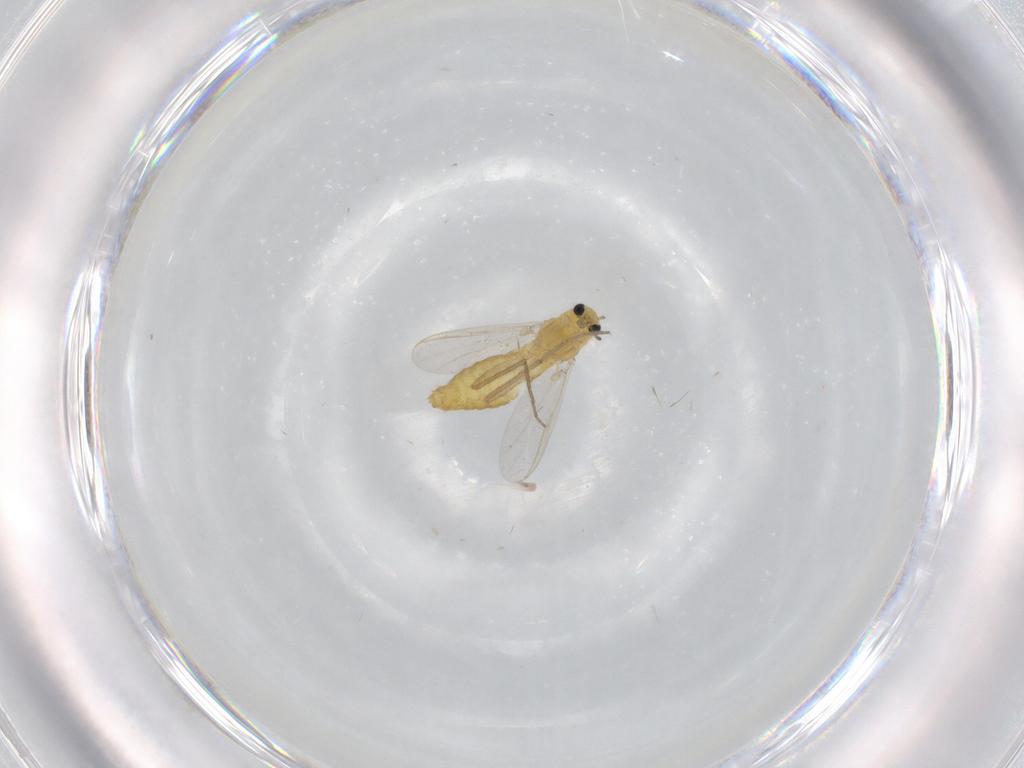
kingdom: Animalia
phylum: Arthropoda
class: Insecta
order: Diptera
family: Chironomidae
